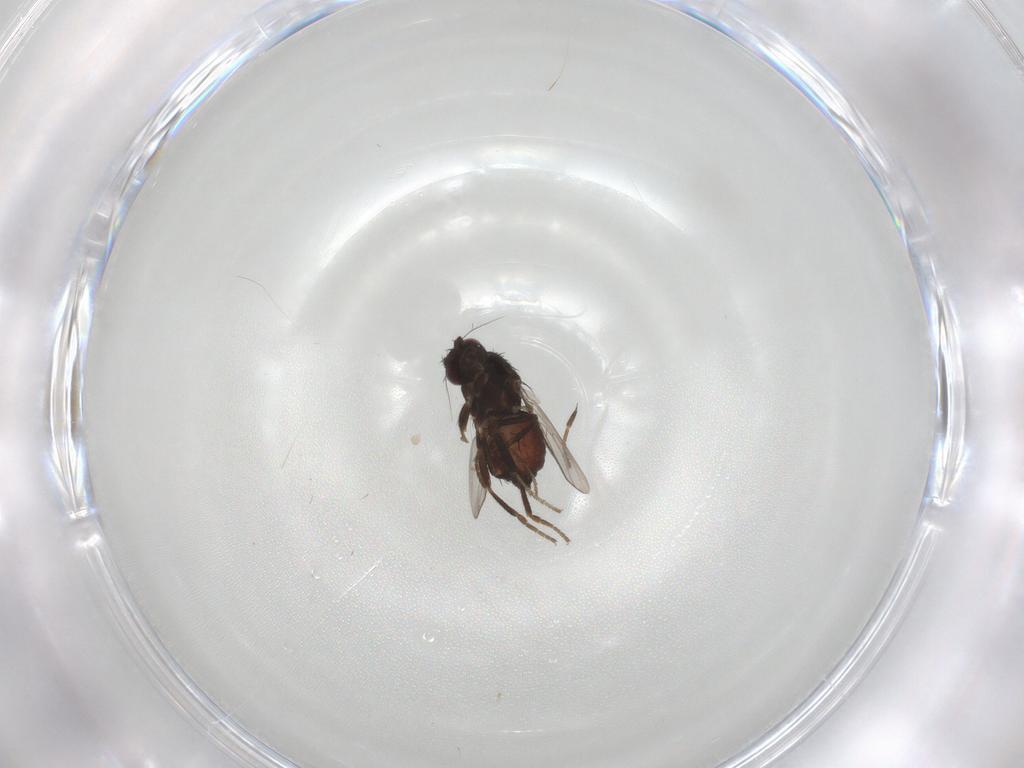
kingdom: Animalia
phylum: Arthropoda
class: Insecta
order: Diptera
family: Sphaeroceridae
